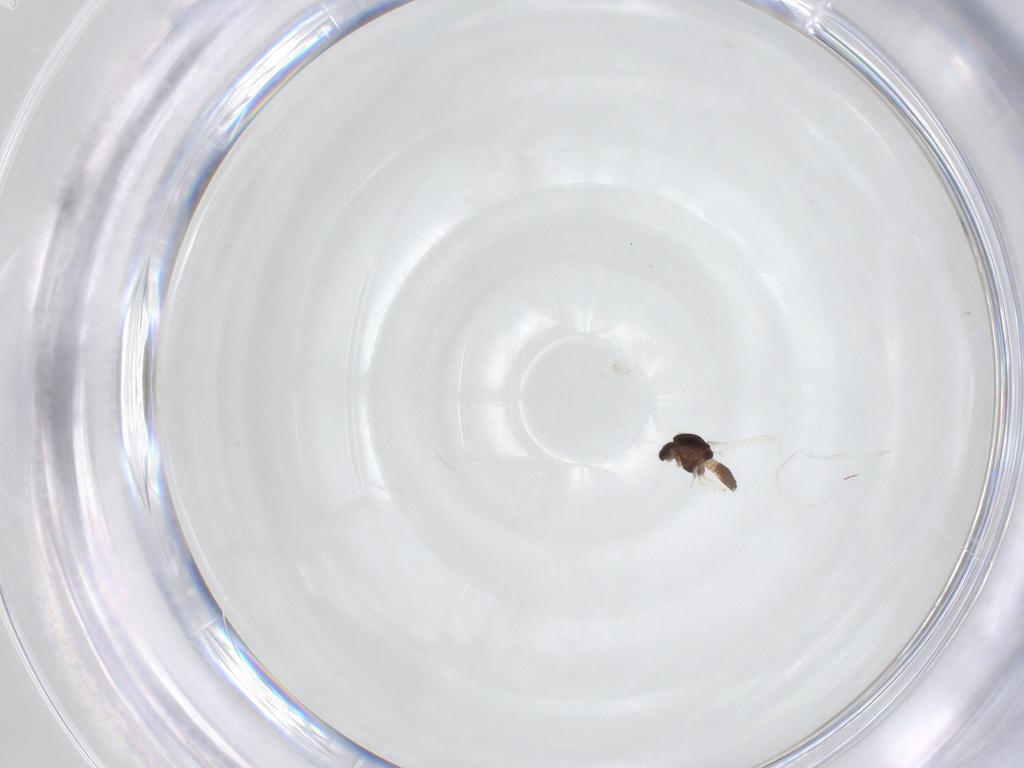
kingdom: Animalia
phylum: Arthropoda
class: Insecta
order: Diptera
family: Chironomidae
